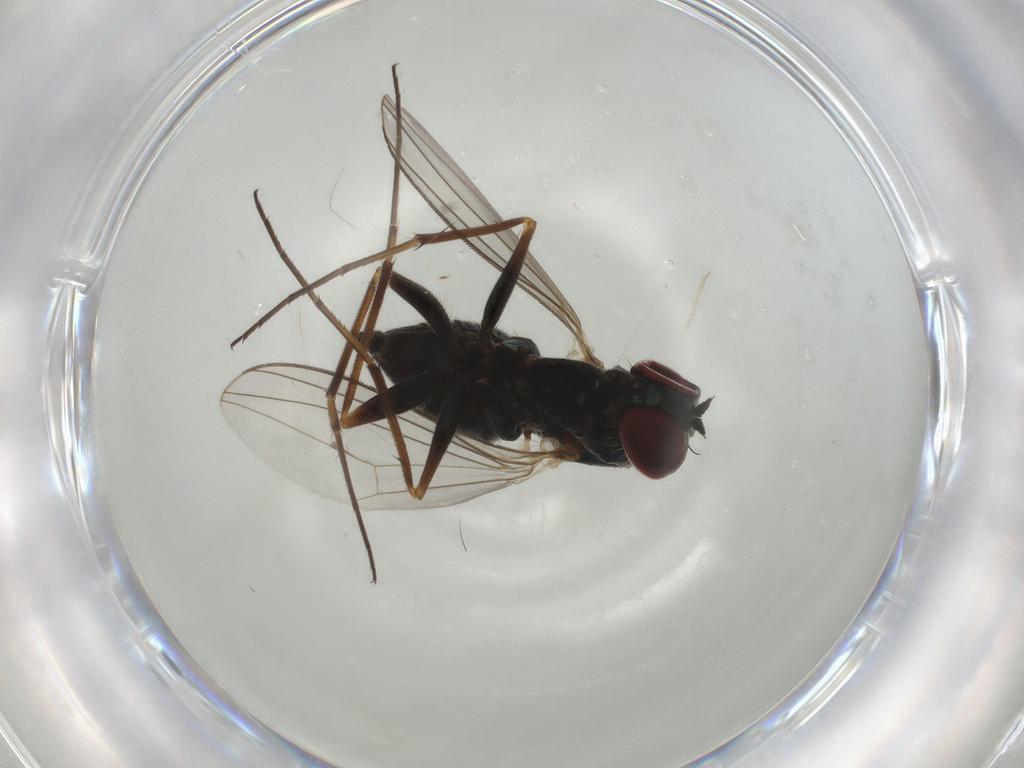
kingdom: Animalia
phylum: Arthropoda
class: Insecta
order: Diptera
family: Dolichopodidae
